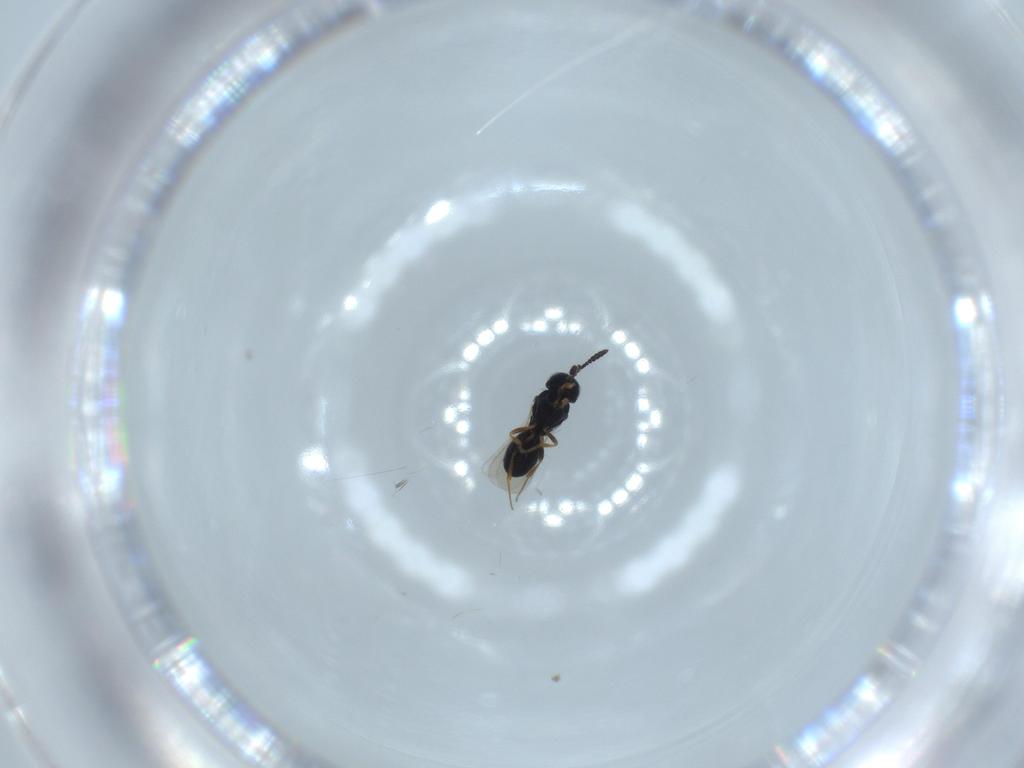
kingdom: Animalia
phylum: Arthropoda
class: Insecta
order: Hymenoptera
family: Scelionidae
